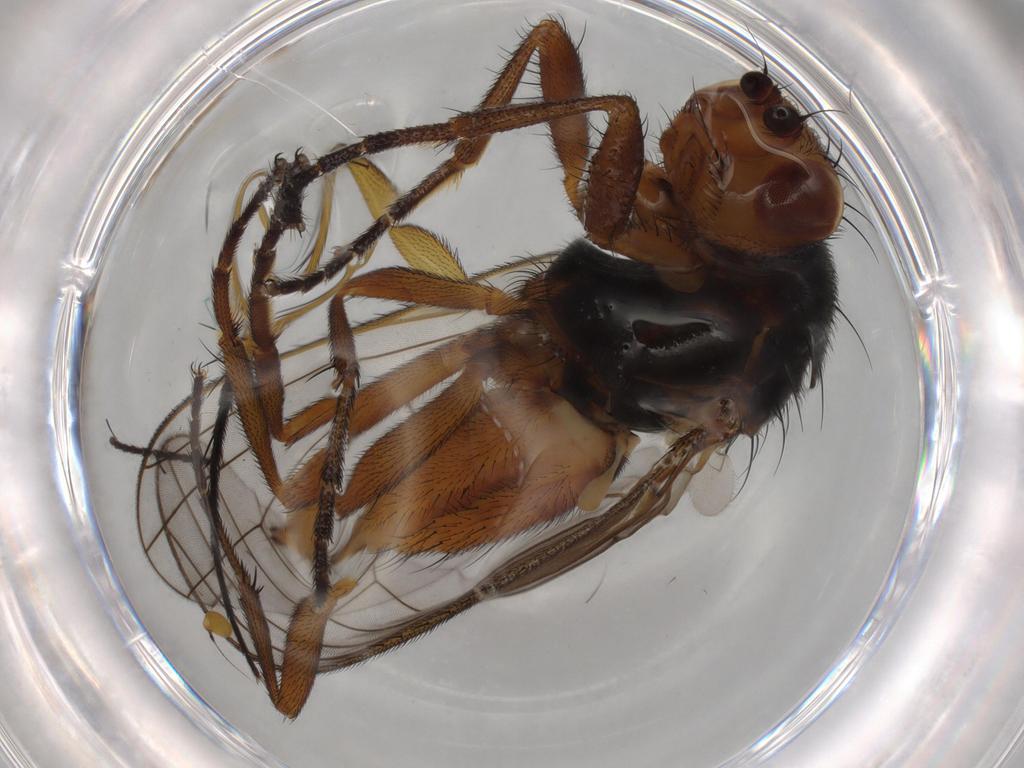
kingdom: Animalia
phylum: Arthropoda
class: Insecta
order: Diptera
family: Heleomyzidae
